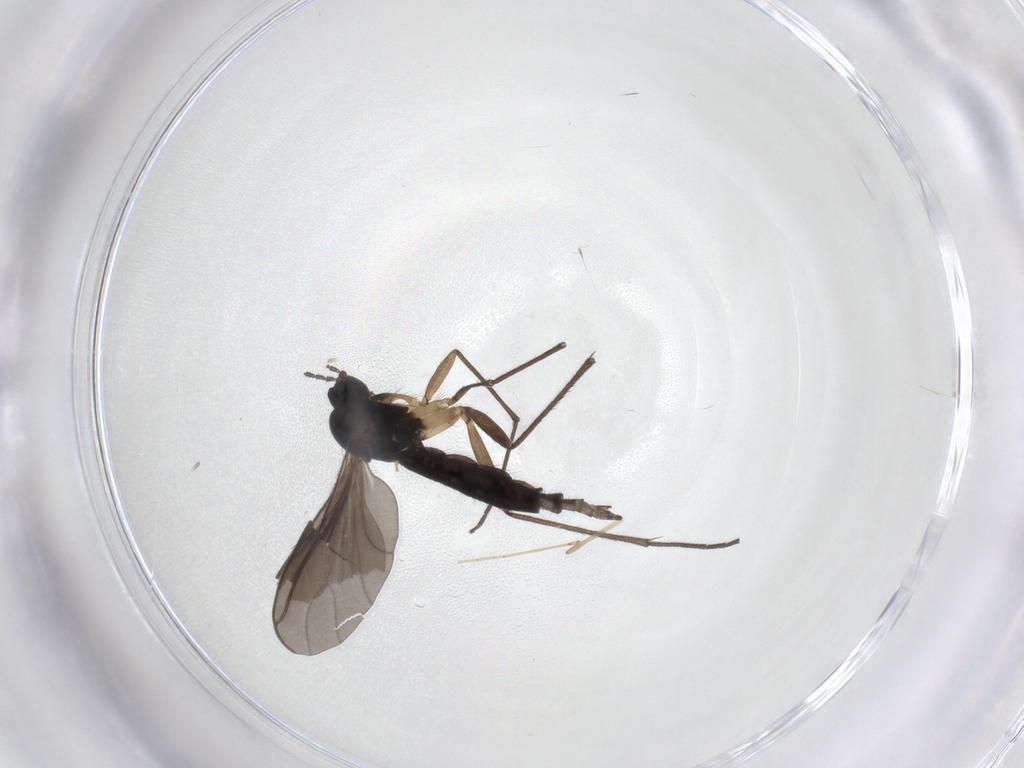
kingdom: Animalia
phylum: Arthropoda
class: Insecta
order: Diptera
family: Sciaridae
